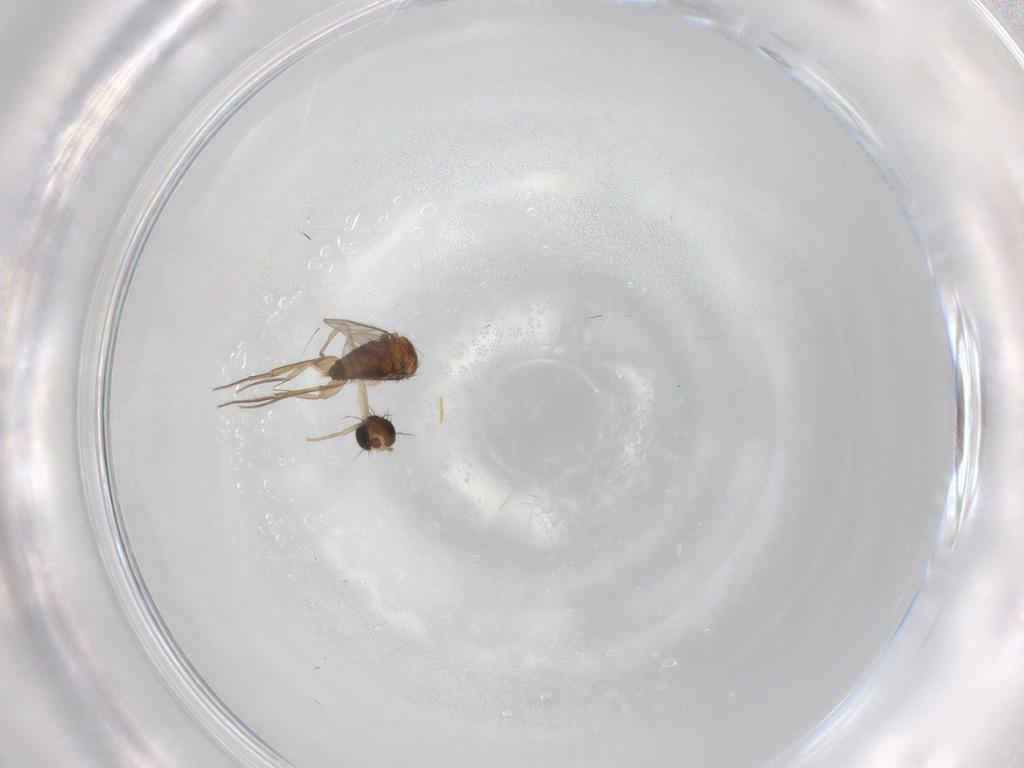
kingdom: Animalia
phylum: Arthropoda
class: Insecta
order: Diptera
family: Phoridae
